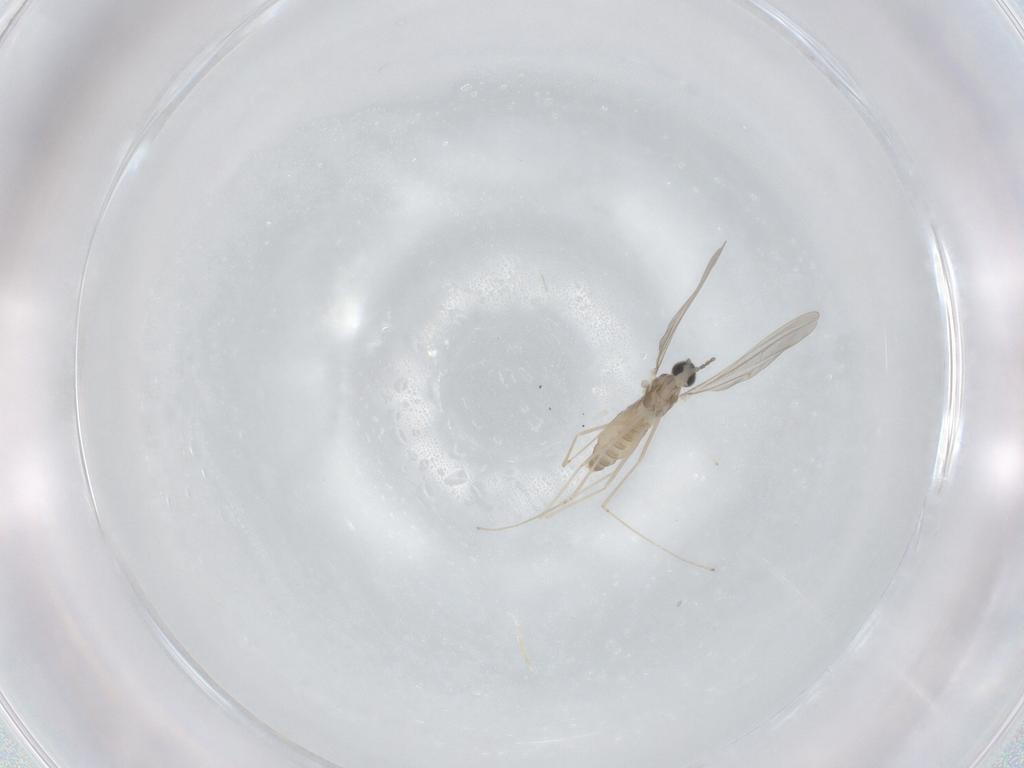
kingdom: Animalia
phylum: Arthropoda
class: Insecta
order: Diptera
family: Cecidomyiidae
